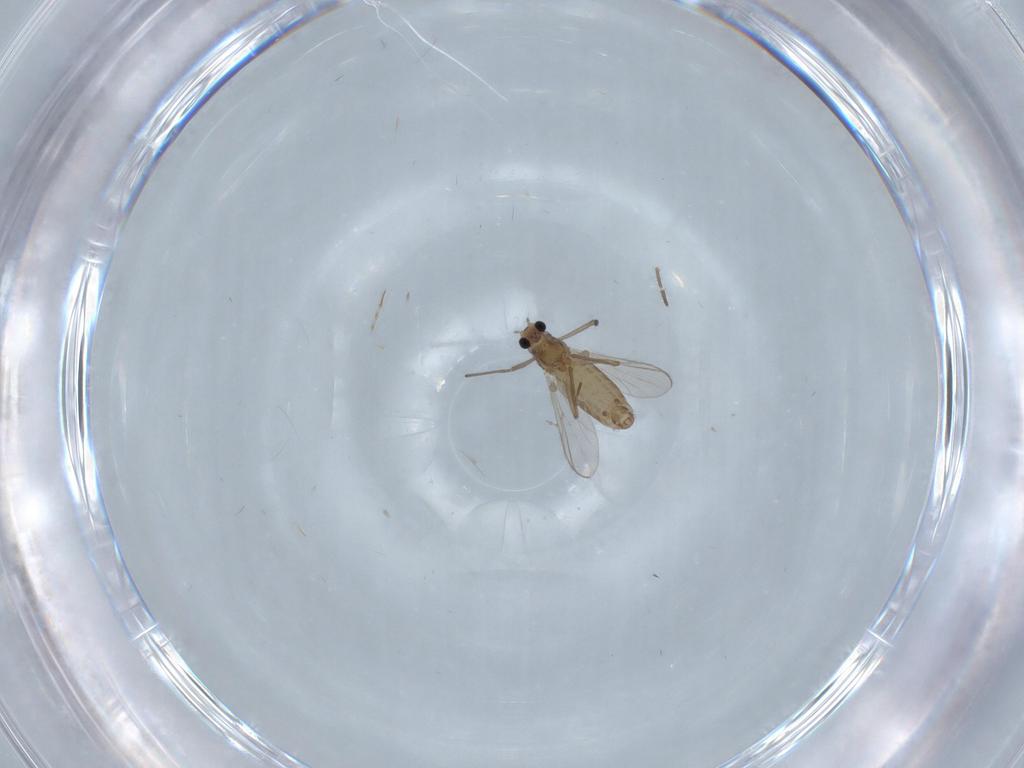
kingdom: Animalia
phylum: Arthropoda
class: Insecta
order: Diptera
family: Chironomidae
